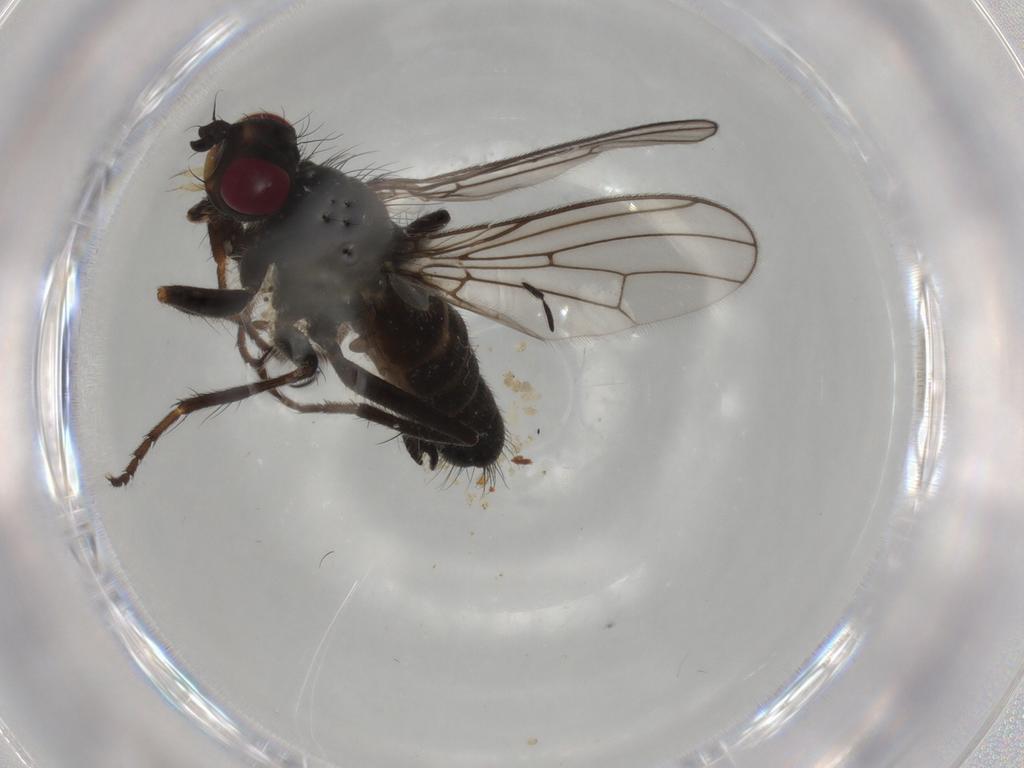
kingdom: Animalia
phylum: Arthropoda
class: Insecta
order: Diptera
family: Scathophagidae
